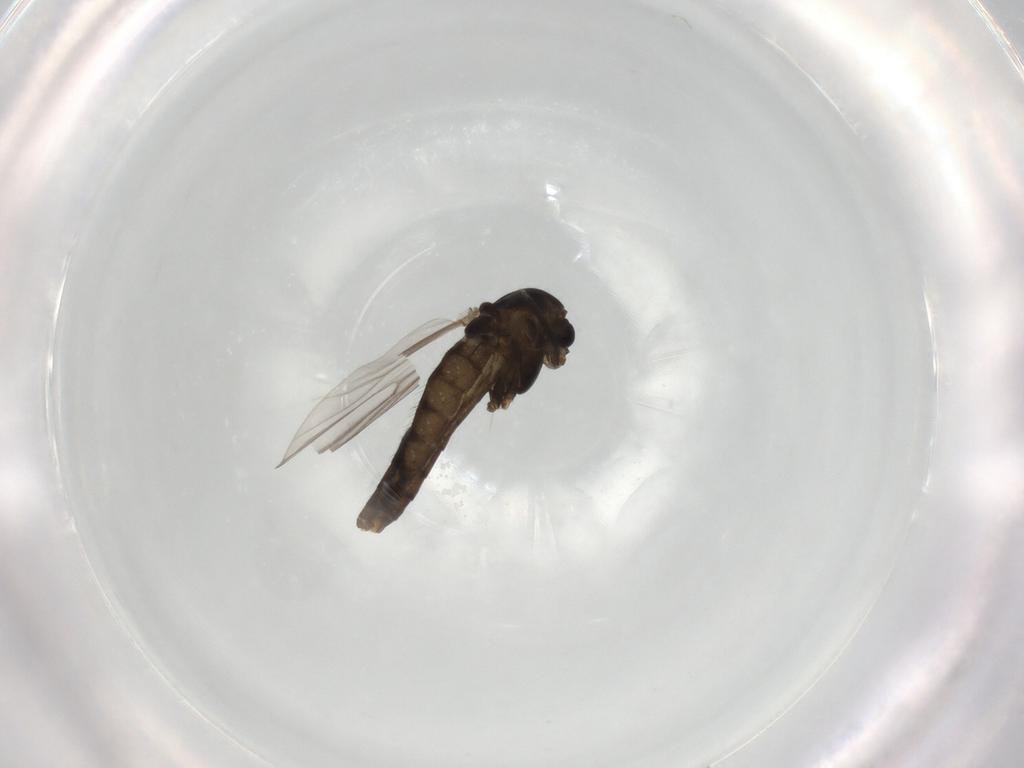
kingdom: Animalia
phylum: Arthropoda
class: Insecta
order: Diptera
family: Chironomidae
